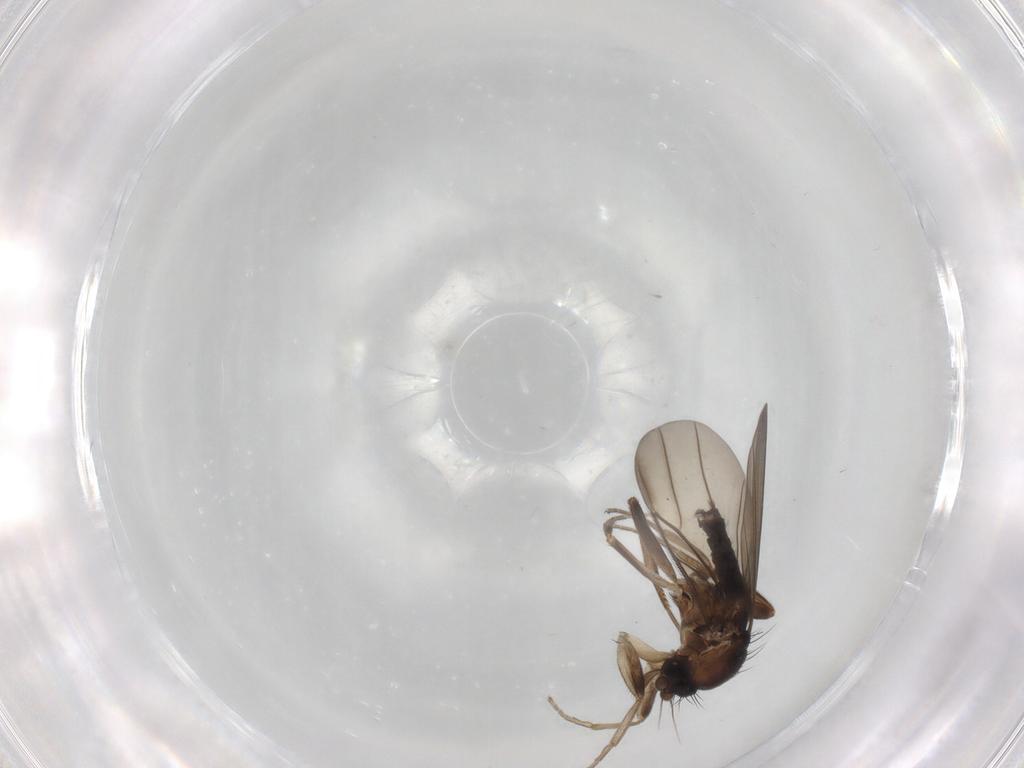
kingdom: Animalia
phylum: Arthropoda
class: Insecta
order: Diptera
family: Phoridae
